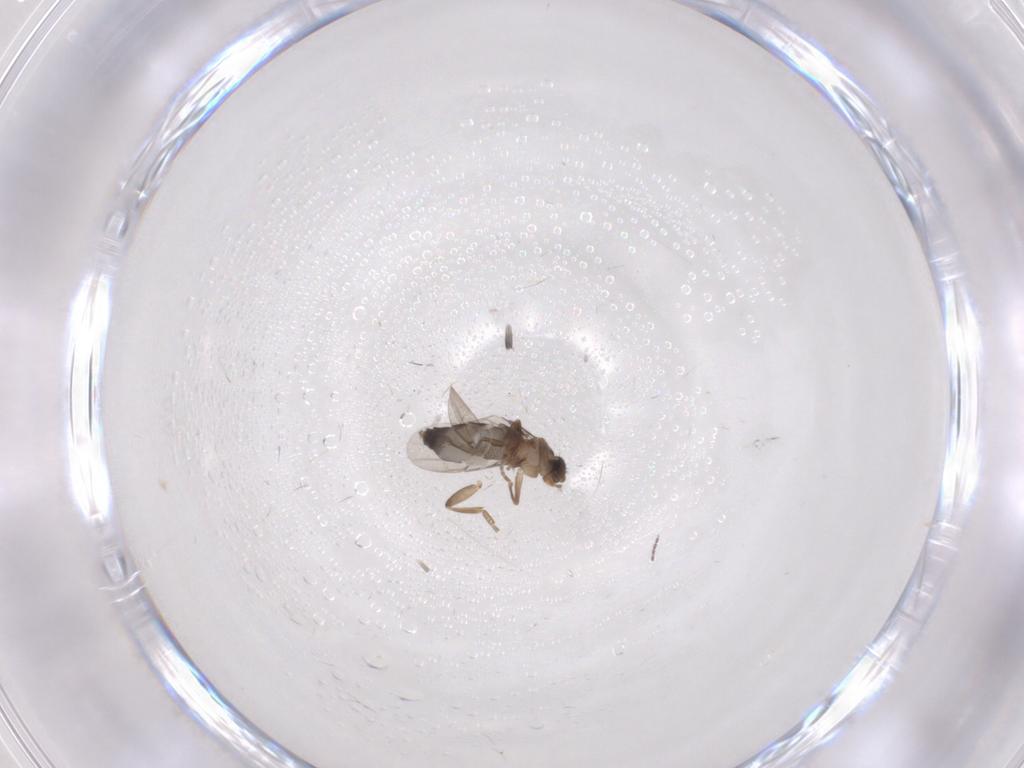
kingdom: Animalia
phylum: Arthropoda
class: Insecta
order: Diptera
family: Phoridae
